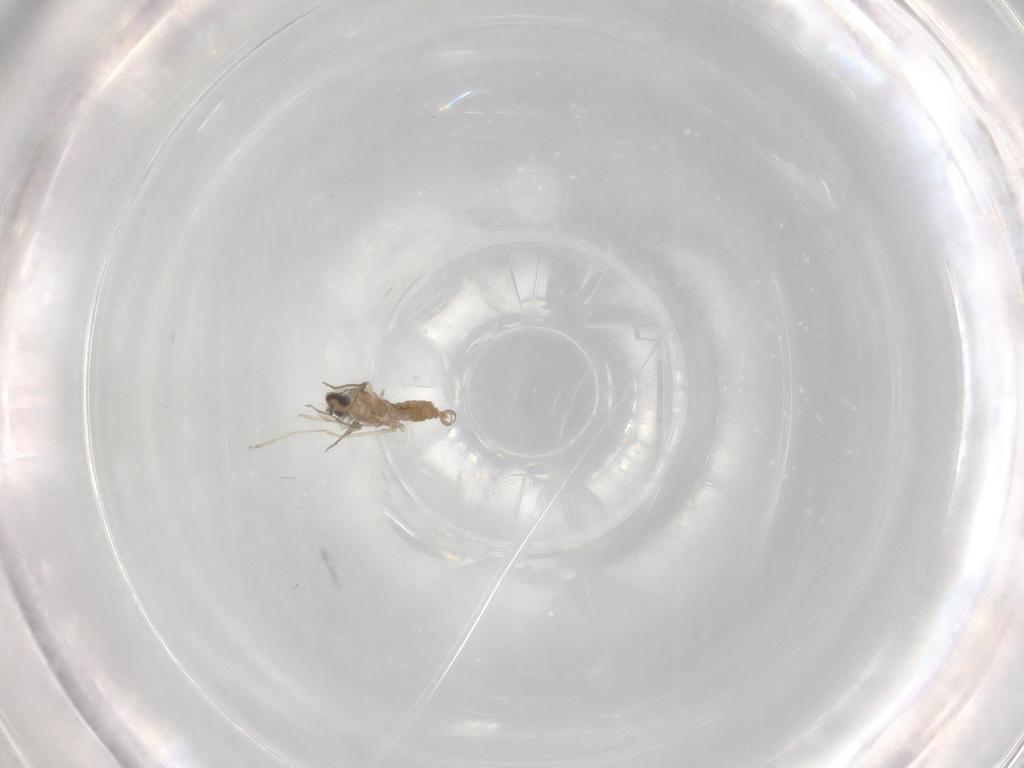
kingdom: Animalia
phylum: Arthropoda
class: Insecta
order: Diptera
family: Cecidomyiidae
